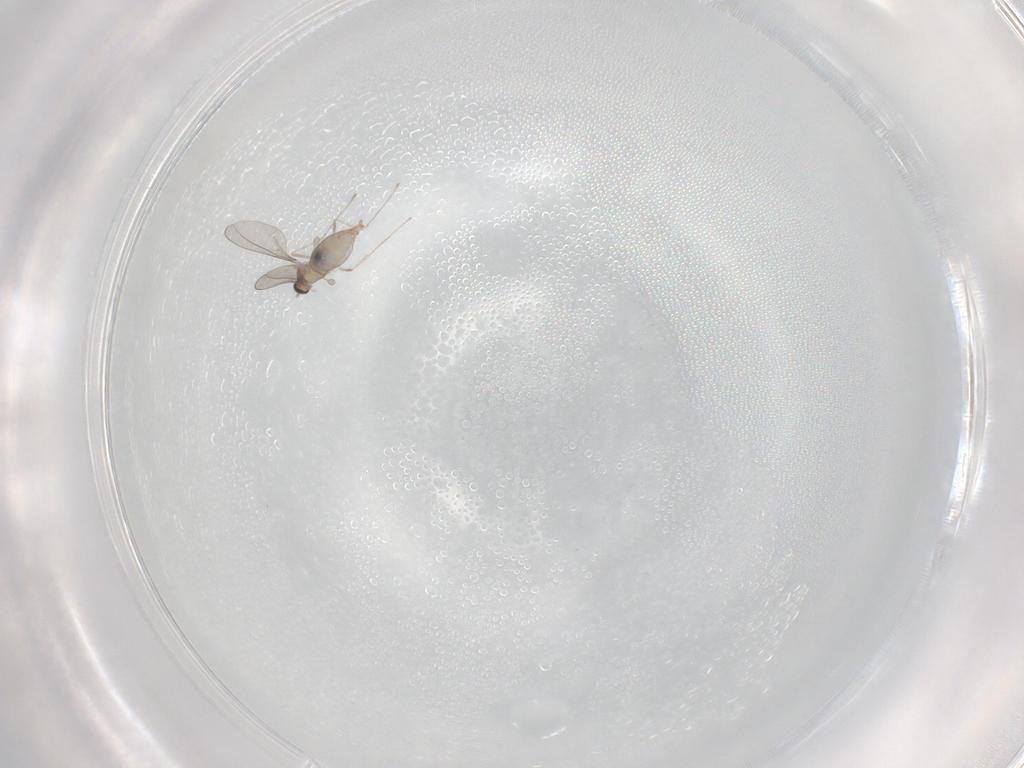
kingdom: Animalia
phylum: Arthropoda
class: Insecta
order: Diptera
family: Cecidomyiidae
